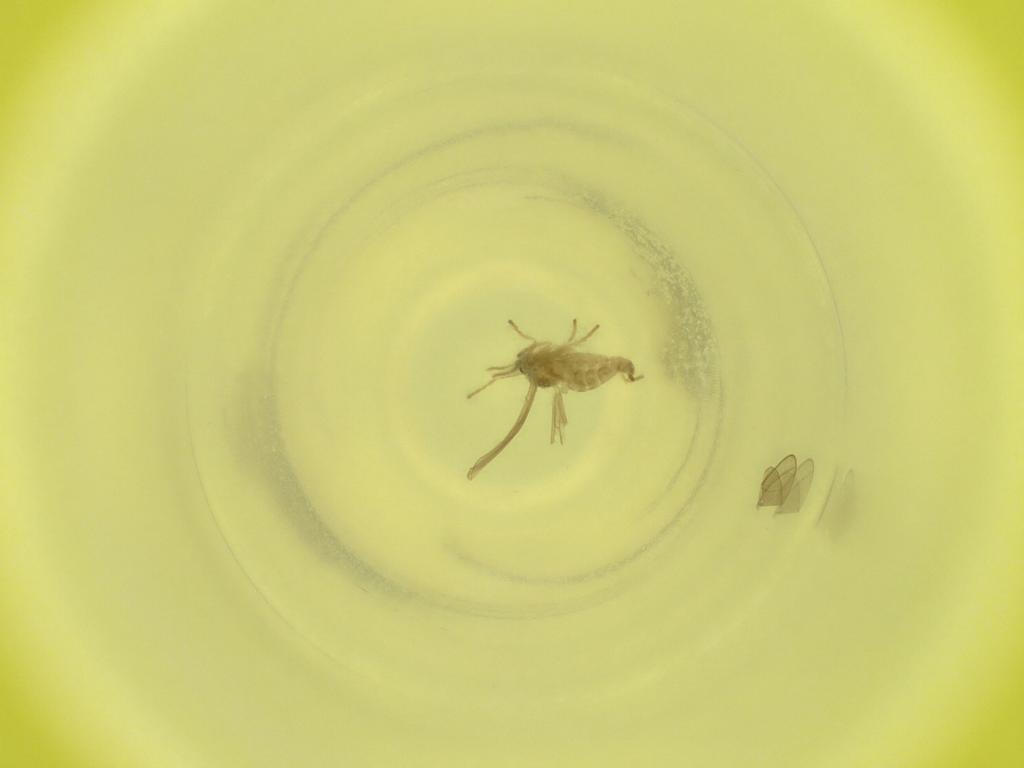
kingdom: Animalia
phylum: Arthropoda
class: Insecta
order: Diptera
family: Cecidomyiidae
